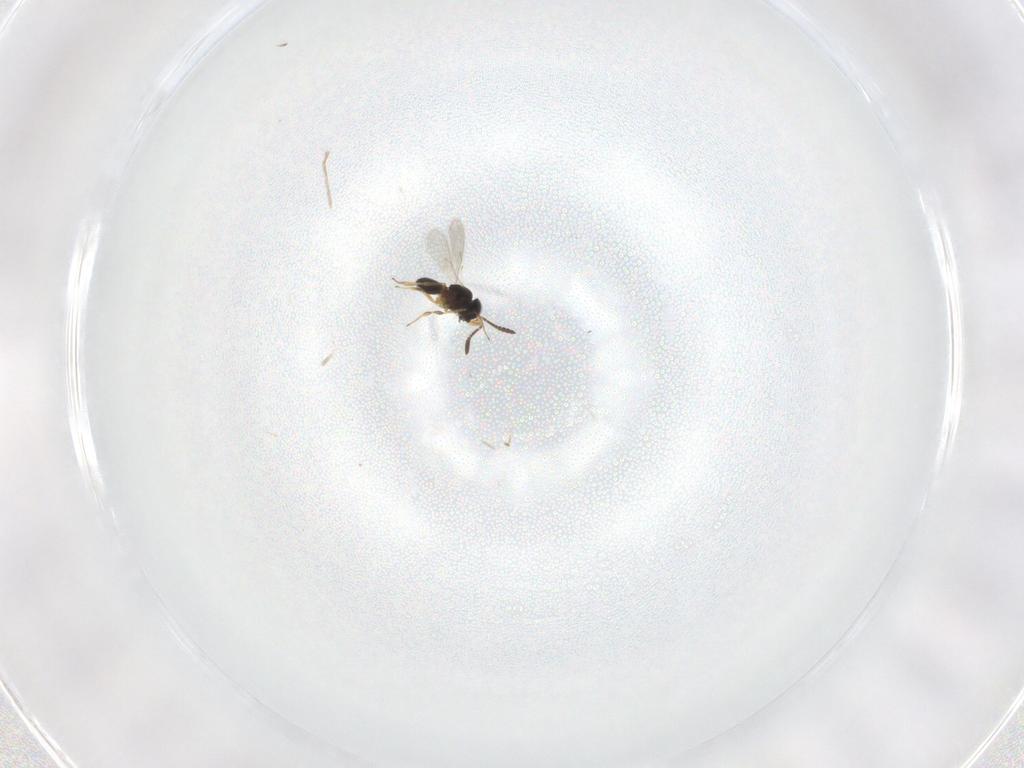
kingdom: Animalia
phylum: Arthropoda
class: Insecta
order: Hymenoptera
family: Scelionidae
